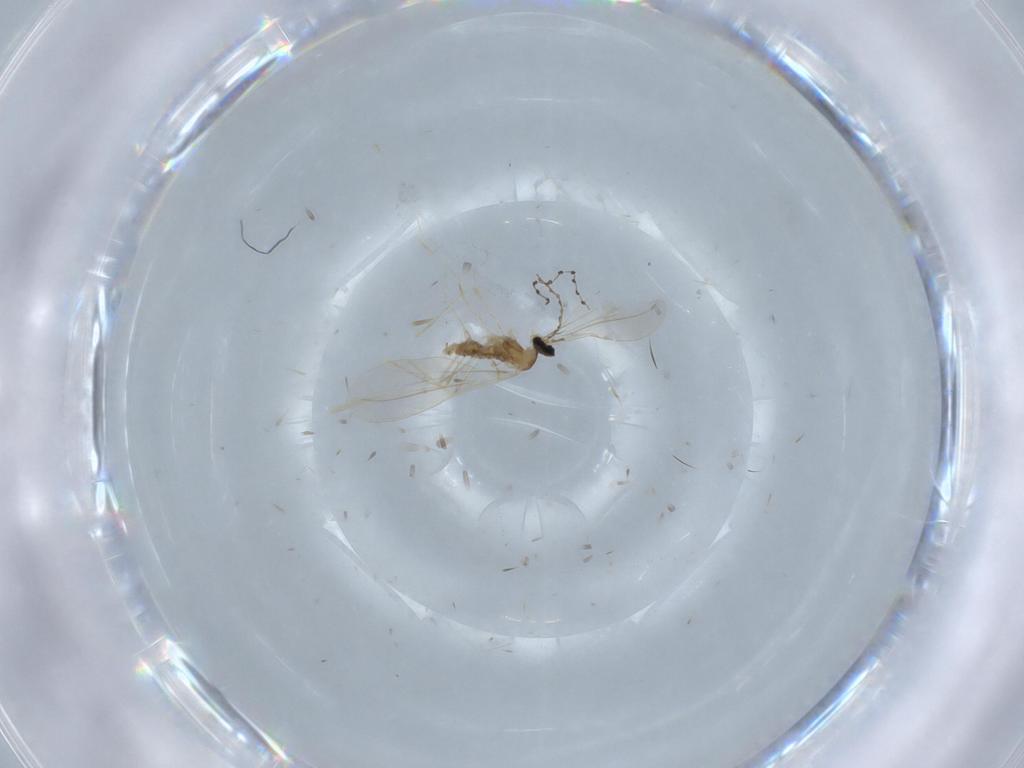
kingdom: Animalia
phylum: Arthropoda
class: Insecta
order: Diptera
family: Cecidomyiidae
